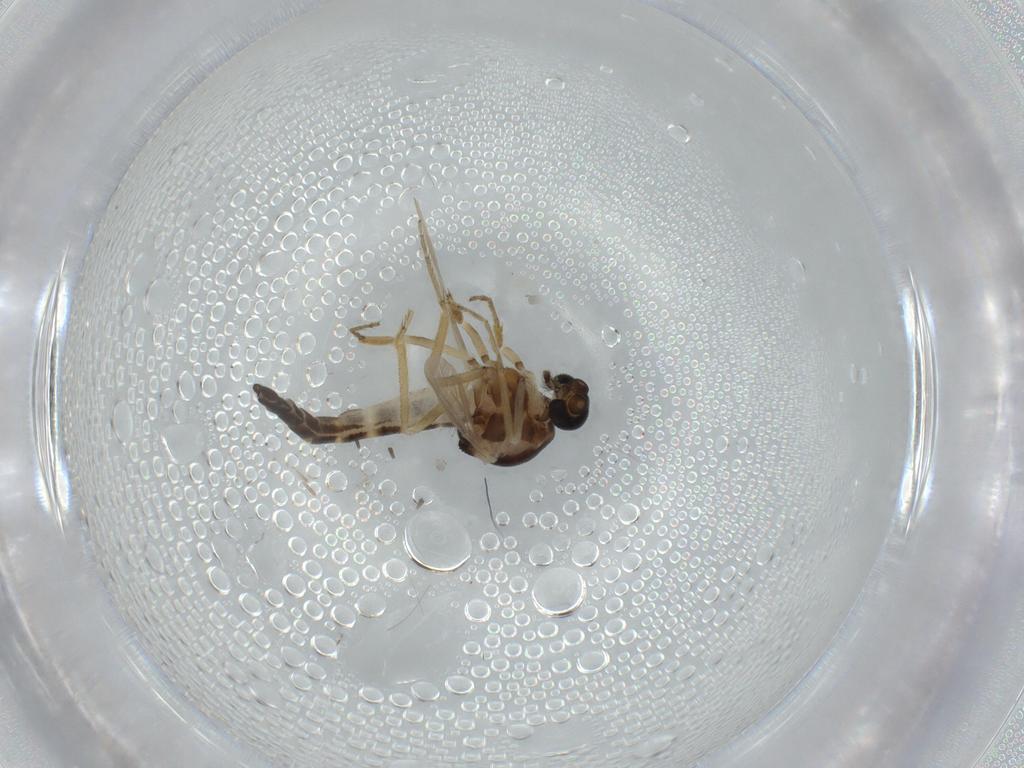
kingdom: Animalia
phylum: Arthropoda
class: Insecta
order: Diptera
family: Ceratopogonidae
